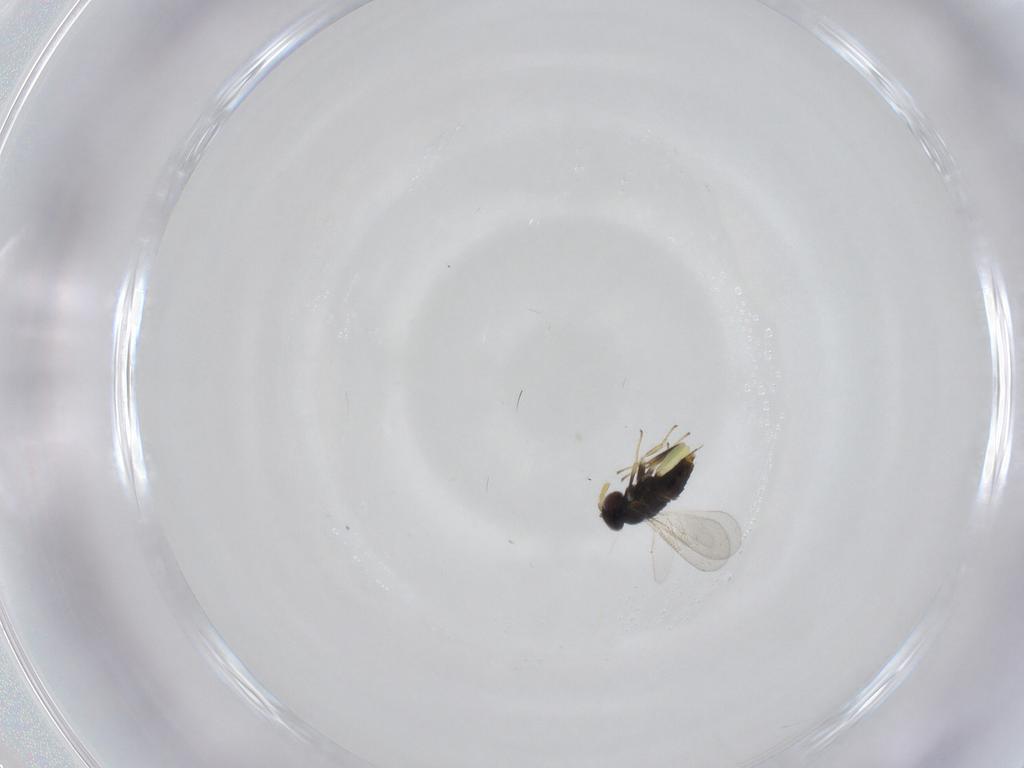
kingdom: Animalia
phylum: Arthropoda
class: Insecta
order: Hymenoptera
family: Aphelinidae
